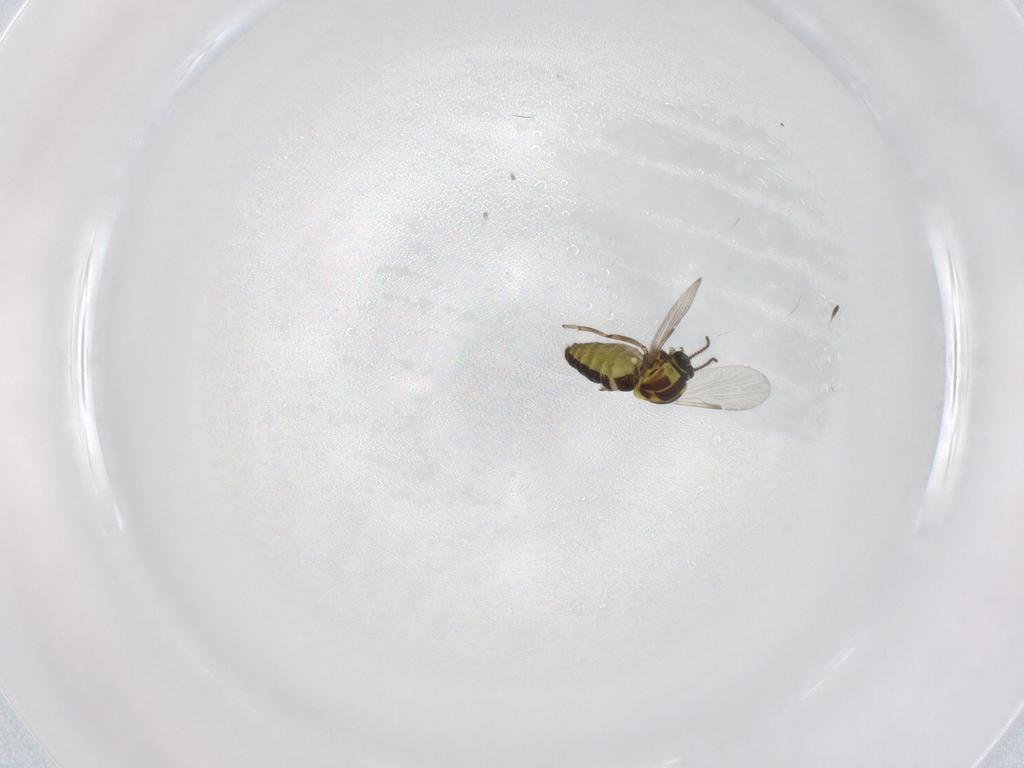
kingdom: Animalia
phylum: Arthropoda
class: Insecta
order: Diptera
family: Ceratopogonidae
